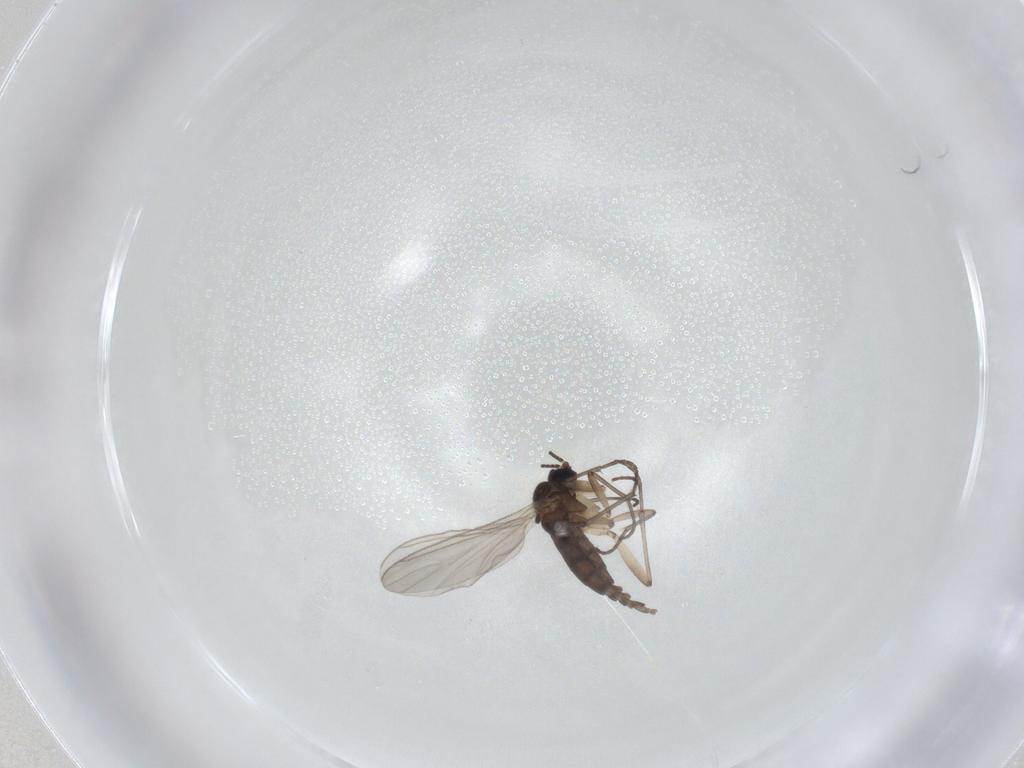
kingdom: Animalia
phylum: Arthropoda
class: Insecta
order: Diptera
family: Sciaridae
